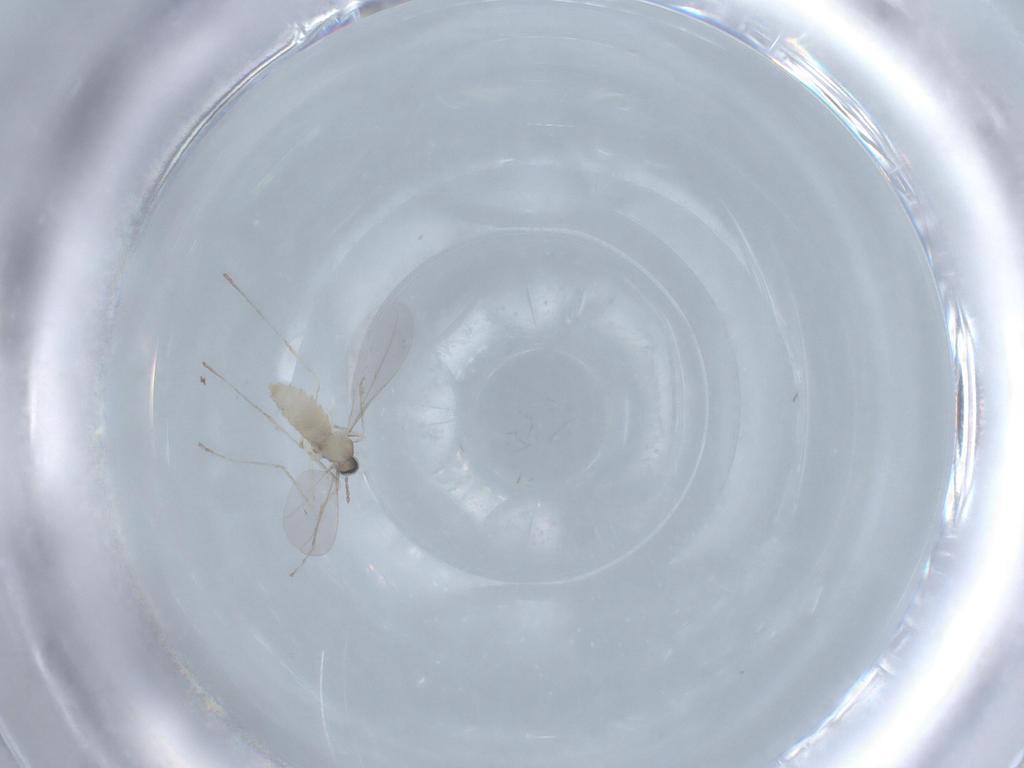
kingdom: Animalia
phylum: Arthropoda
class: Insecta
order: Diptera
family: Cecidomyiidae
